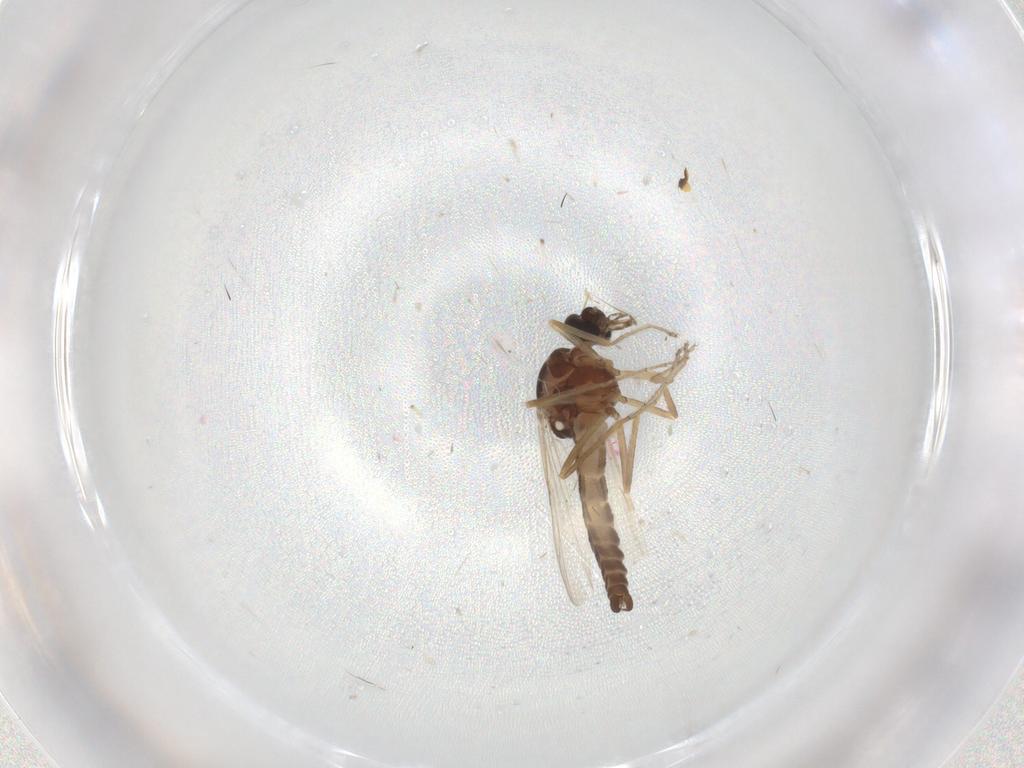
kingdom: Animalia
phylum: Arthropoda
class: Insecta
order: Diptera
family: Ceratopogonidae
